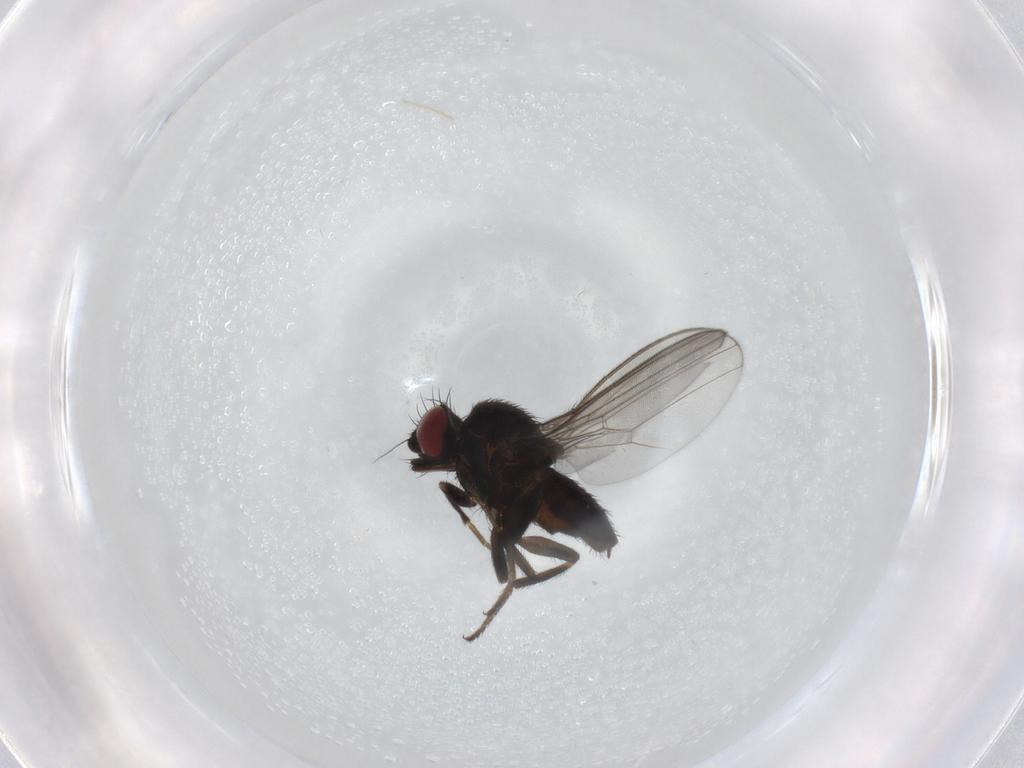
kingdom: Animalia
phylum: Arthropoda
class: Insecta
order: Diptera
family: Milichiidae
